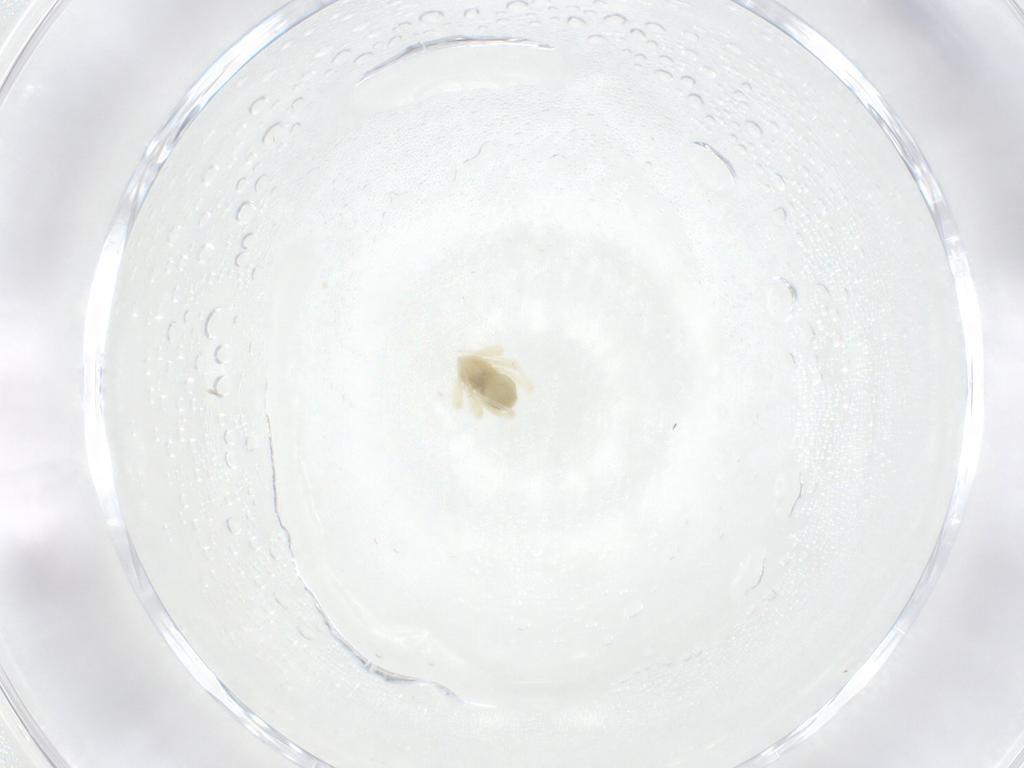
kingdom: Animalia
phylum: Arthropoda
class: Arachnida
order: Trombidiformes
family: Anystidae
